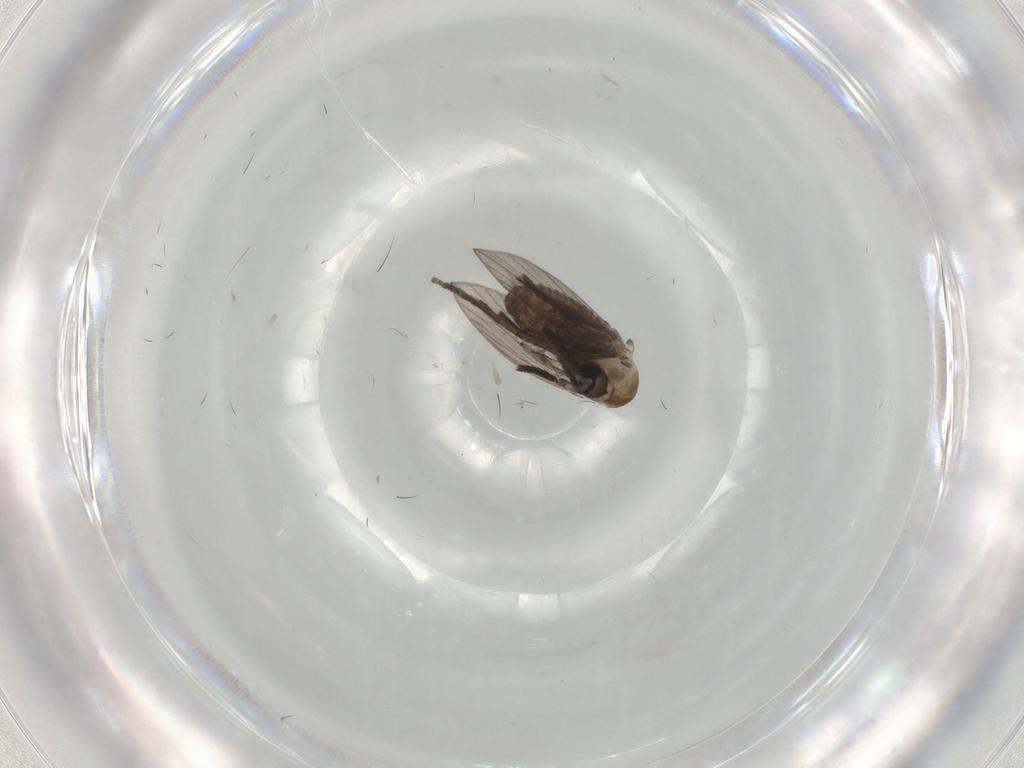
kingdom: Animalia
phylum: Arthropoda
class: Insecta
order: Diptera
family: Psychodidae
